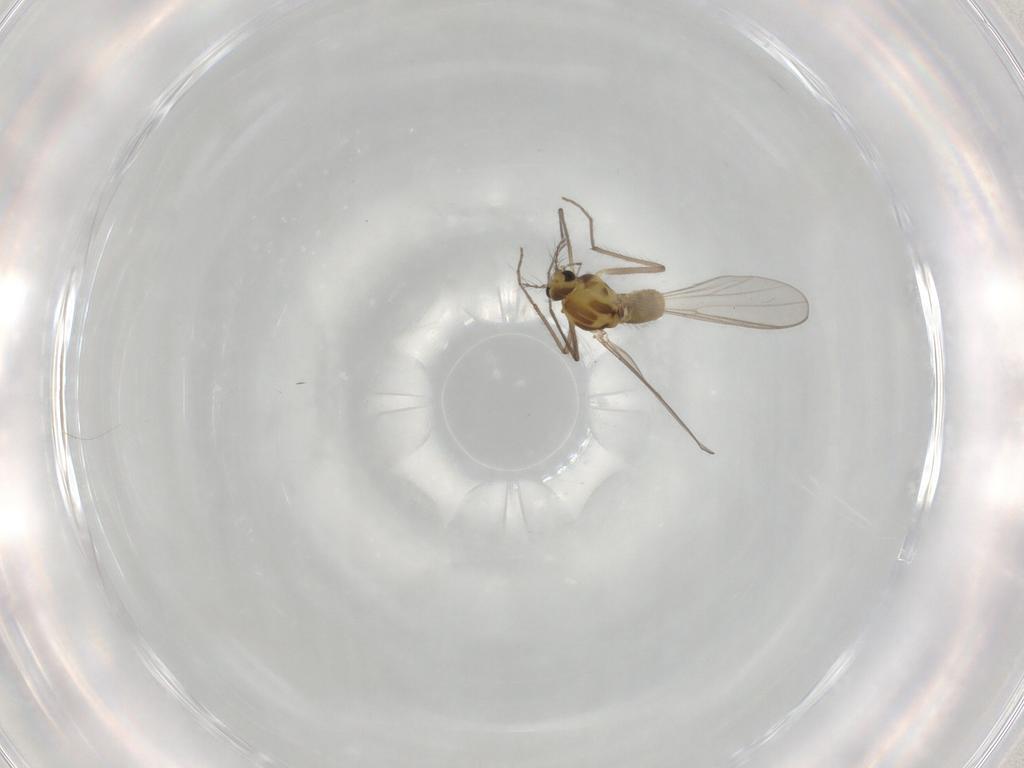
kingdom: Animalia
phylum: Arthropoda
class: Insecta
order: Diptera
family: Chironomidae
